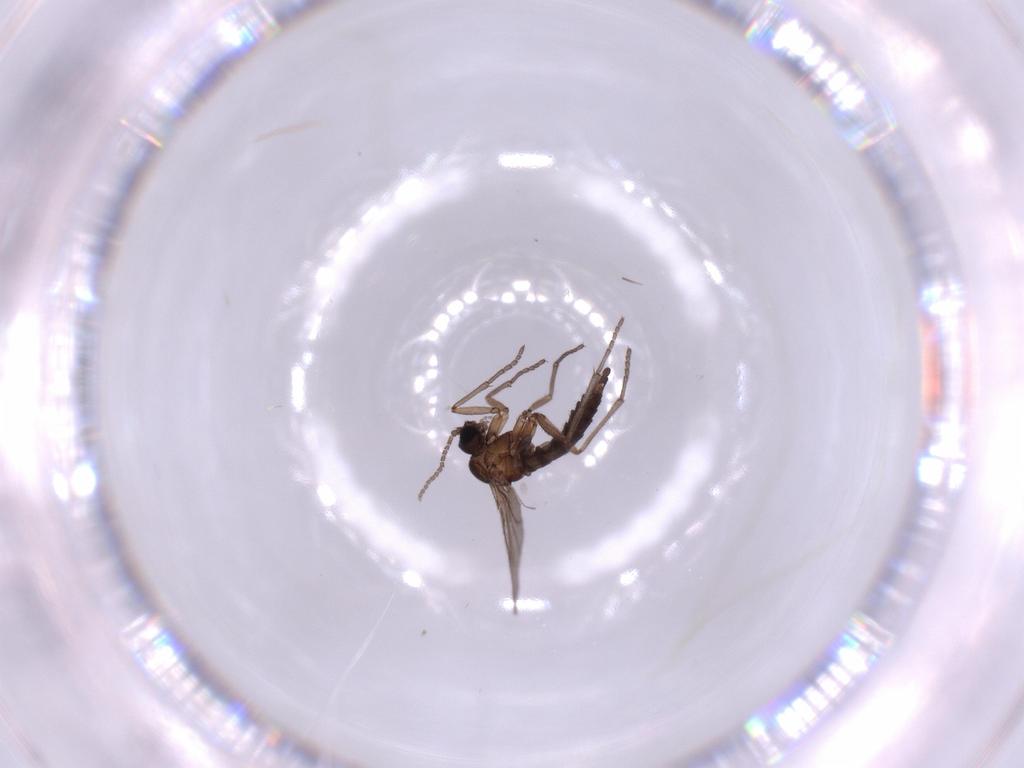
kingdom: Animalia
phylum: Arthropoda
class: Insecta
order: Diptera
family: Sciaridae
